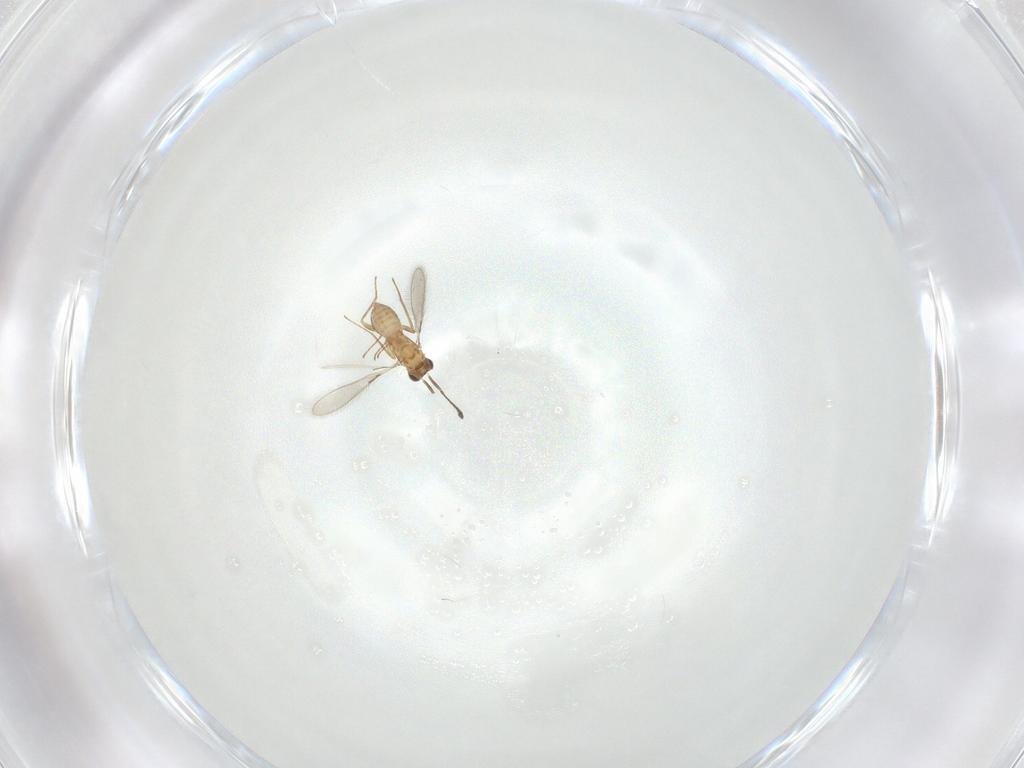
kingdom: Animalia
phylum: Arthropoda
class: Insecta
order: Hymenoptera
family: Mymaridae
